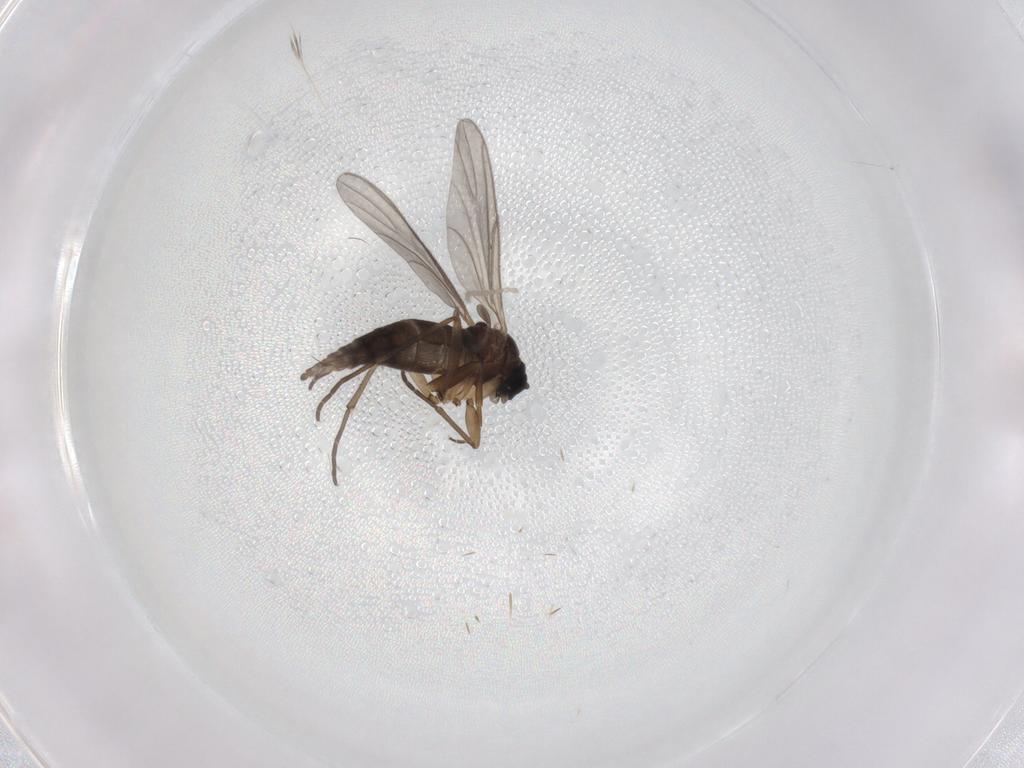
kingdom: Animalia
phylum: Arthropoda
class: Insecta
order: Diptera
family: Sciaridae
